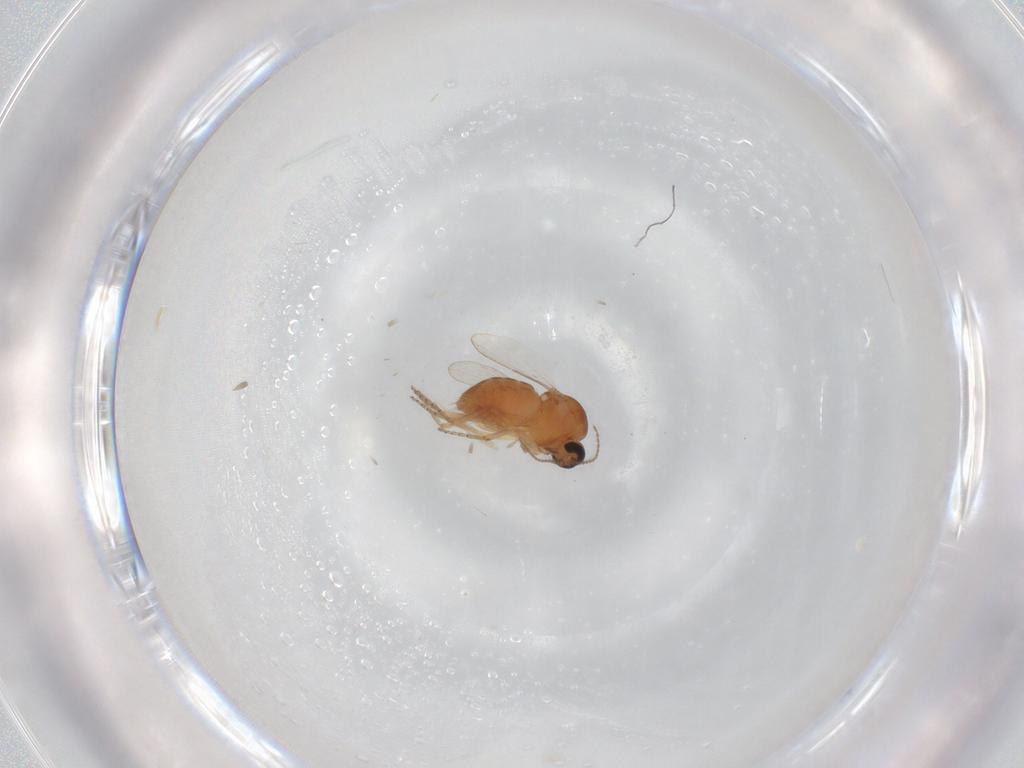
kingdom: Animalia
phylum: Arthropoda
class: Insecta
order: Diptera
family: Ceratopogonidae
